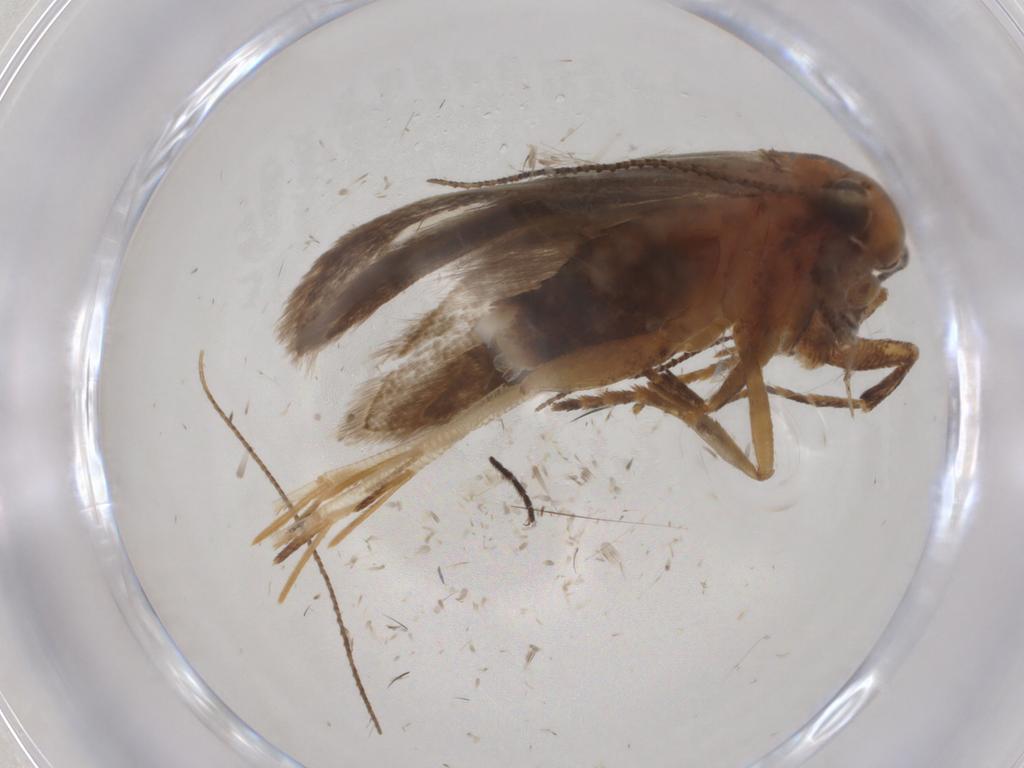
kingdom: Animalia
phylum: Arthropoda
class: Insecta
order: Lepidoptera
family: Gelechiidae
